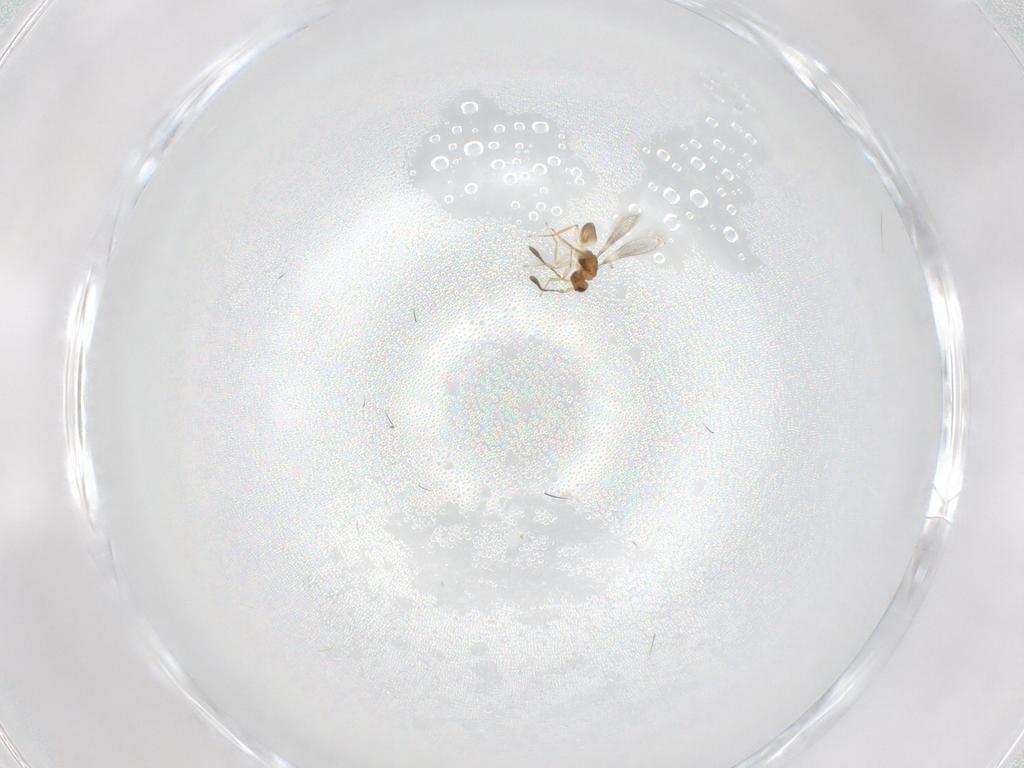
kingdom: Animalia
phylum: Arthropoda
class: Insecta
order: Hymenoptera
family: Mymaridae
